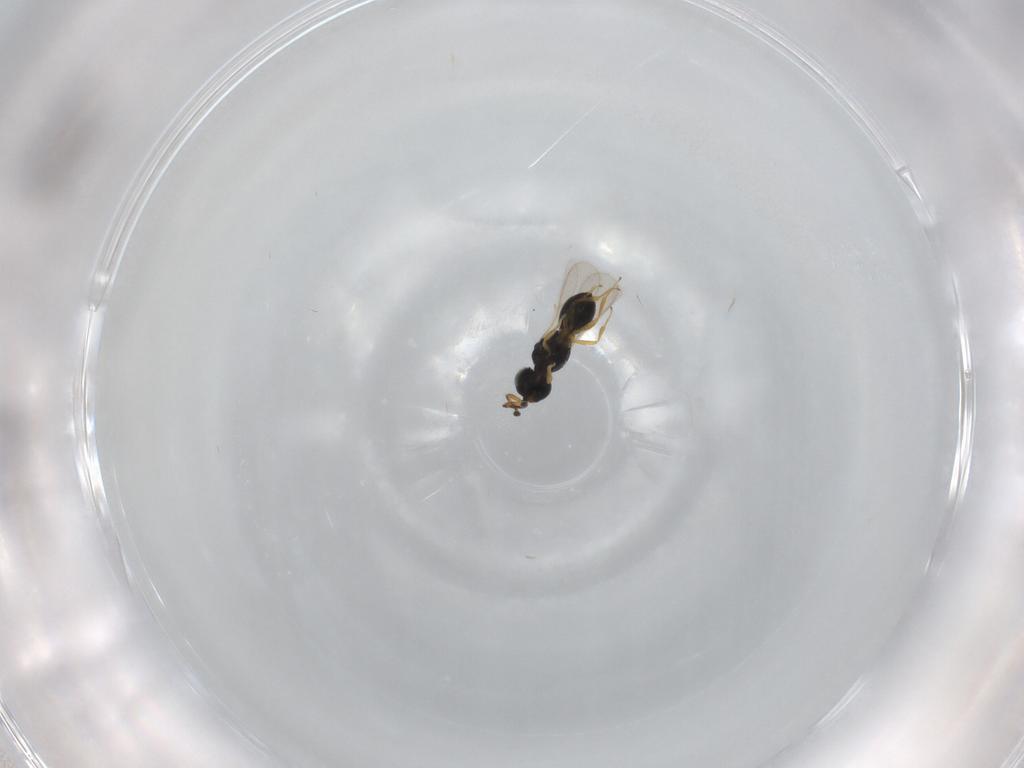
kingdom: Animalia
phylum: Arthropoda
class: Insecta
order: Hymenoptera
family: Scelionidae
